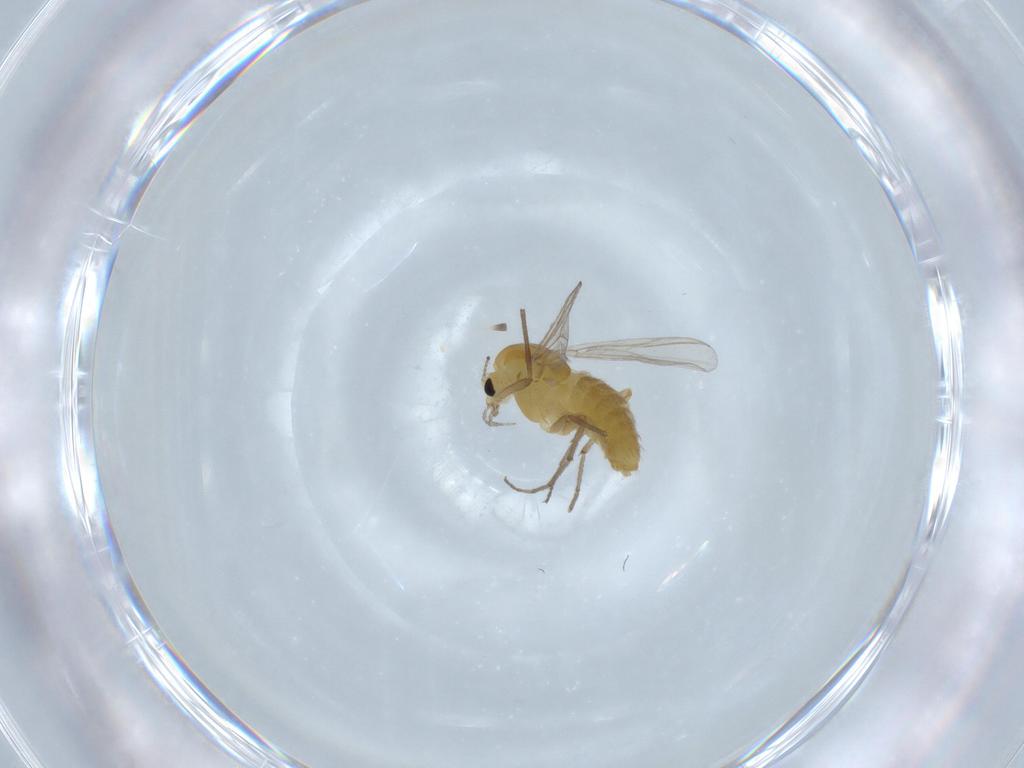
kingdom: Animalia
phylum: Arthropoda
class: Insecta
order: Diptera
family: Chironomidae
